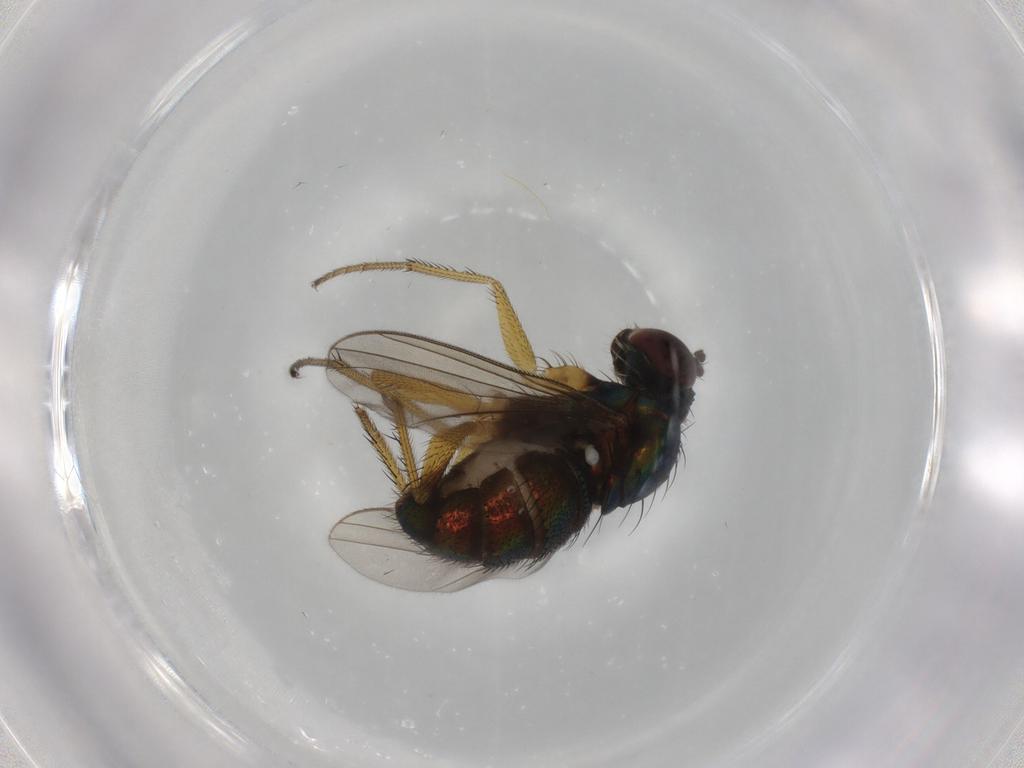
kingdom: Animalia
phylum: Arthropoda
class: Insecta
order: Diptera
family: Dolichopodidae
